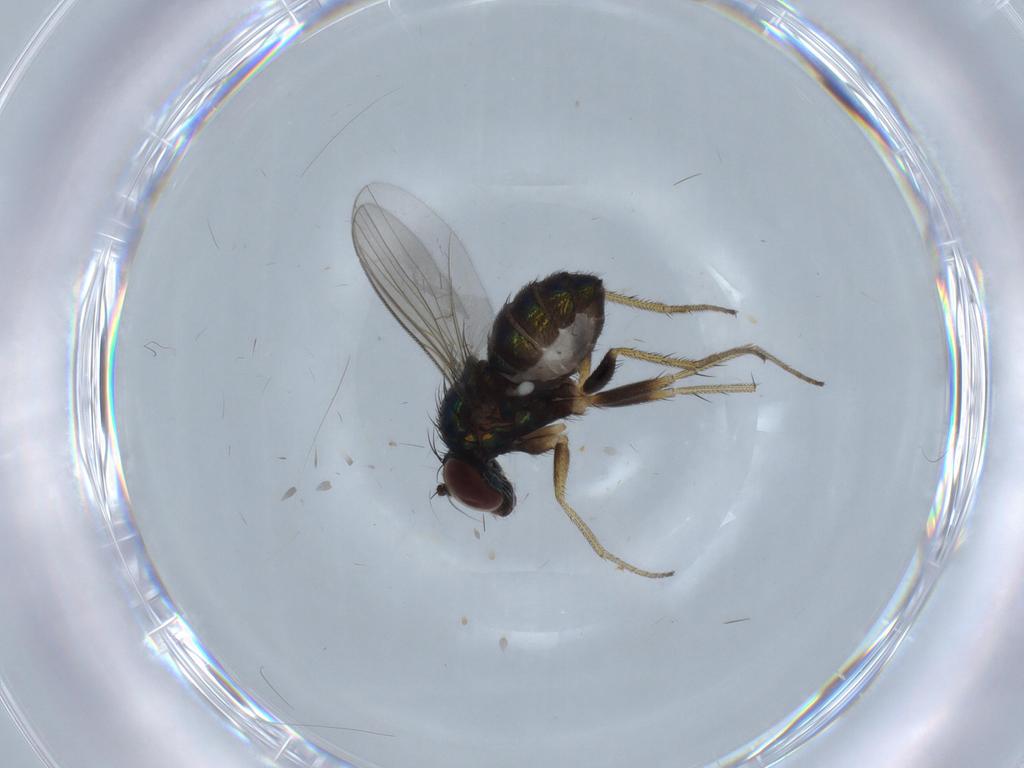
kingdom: Animalia
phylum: Arthropoda
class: Insecta
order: Diptera
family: Dolichopodidae
